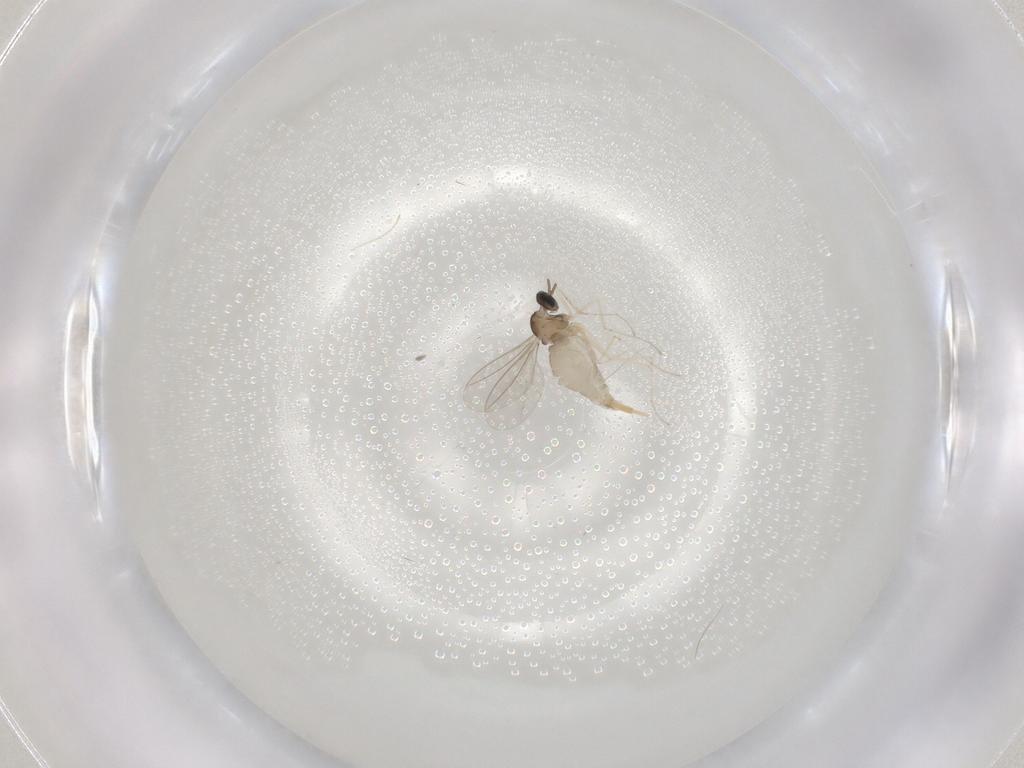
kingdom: Animalia
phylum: Arthropoda
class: Insecta
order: Diptera
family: Cecidomyiidae
